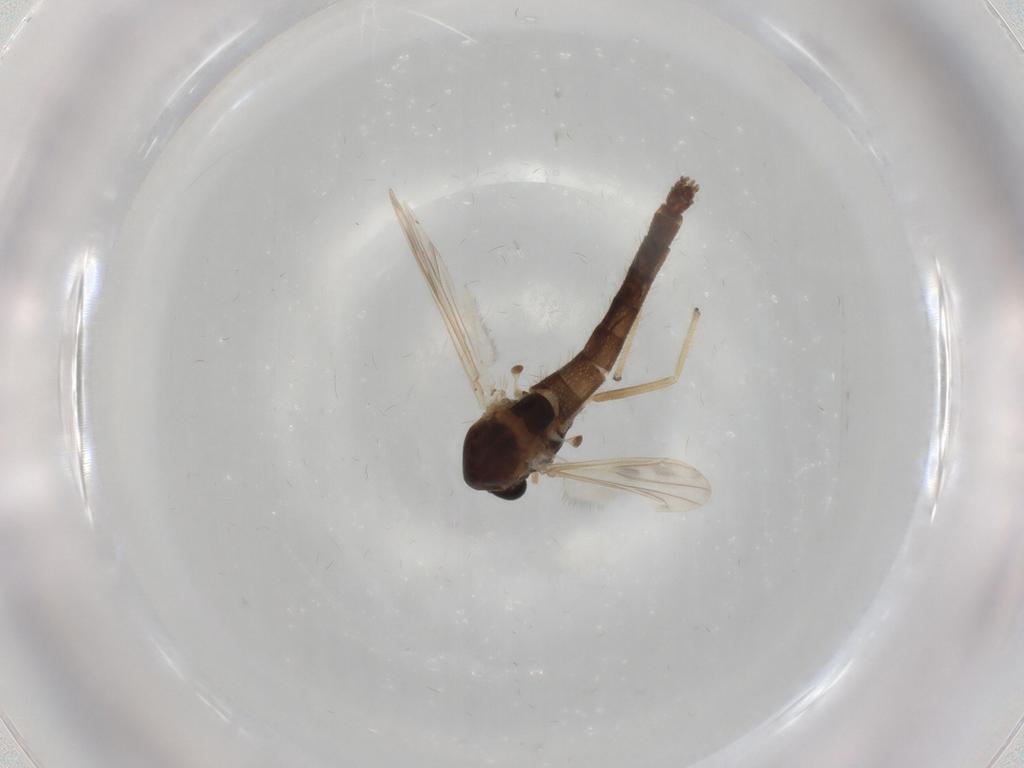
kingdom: Animalia
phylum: Arthropoda
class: Insecta
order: Diptera
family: Chironomidae
